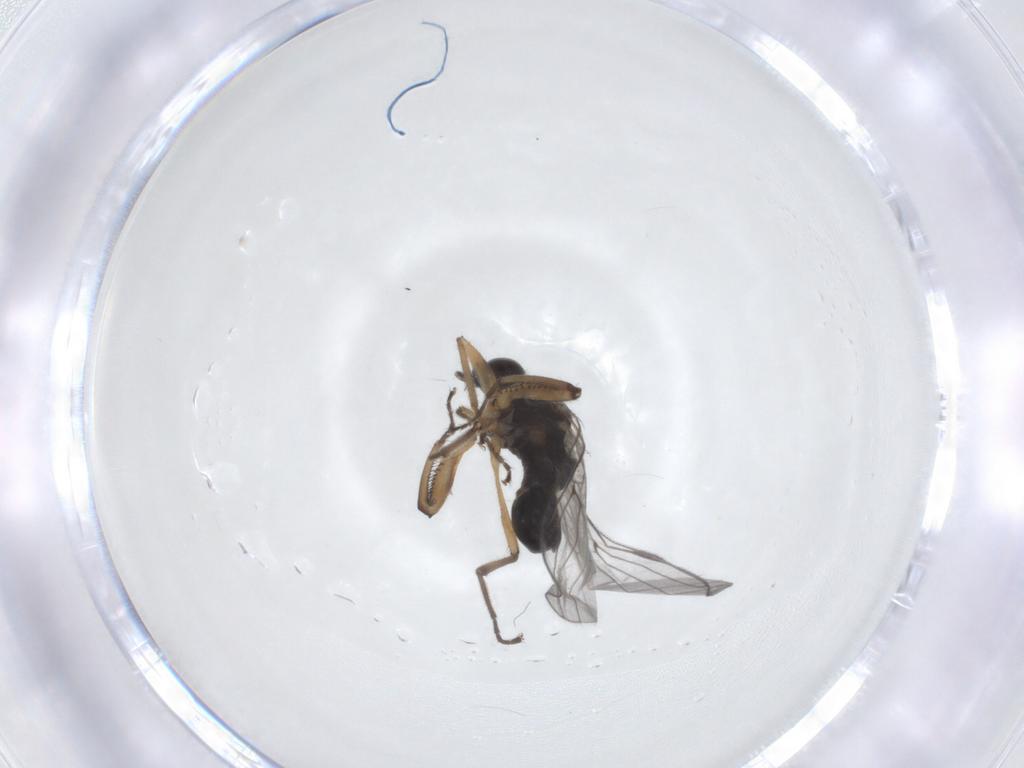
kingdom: Animalia
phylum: Arthropoda
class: Insecta
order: Diptera
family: Hybotidae
